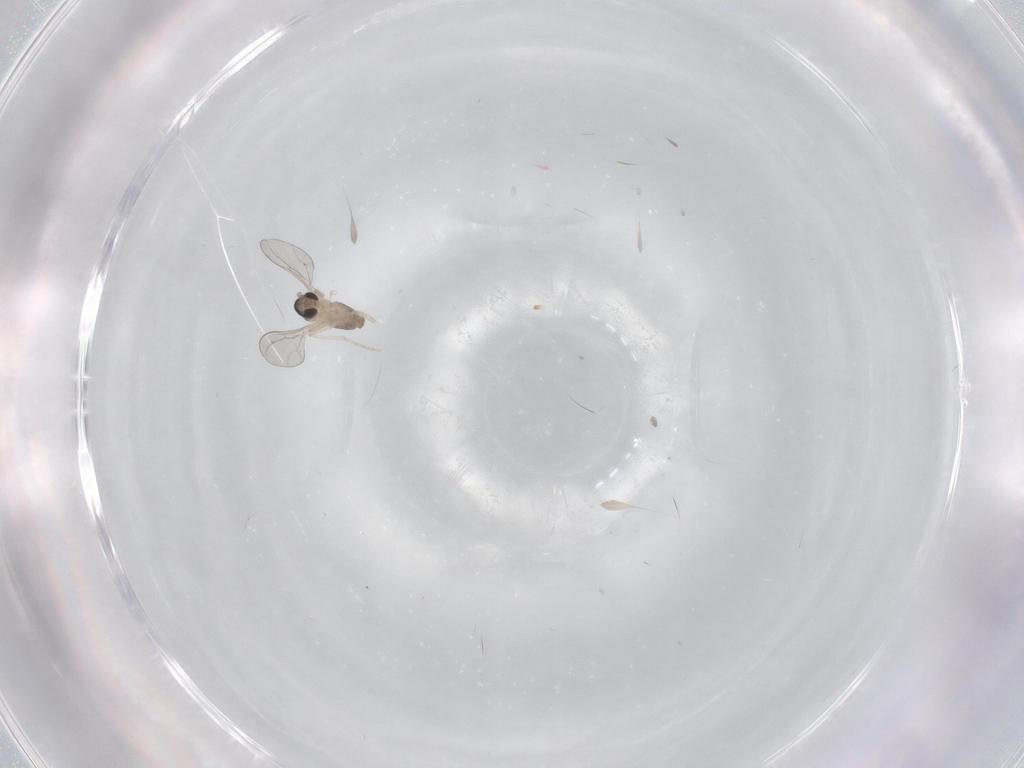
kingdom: Animalia
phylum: Arthropoda
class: Insecta
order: Diptera
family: Cecidomyiidae
